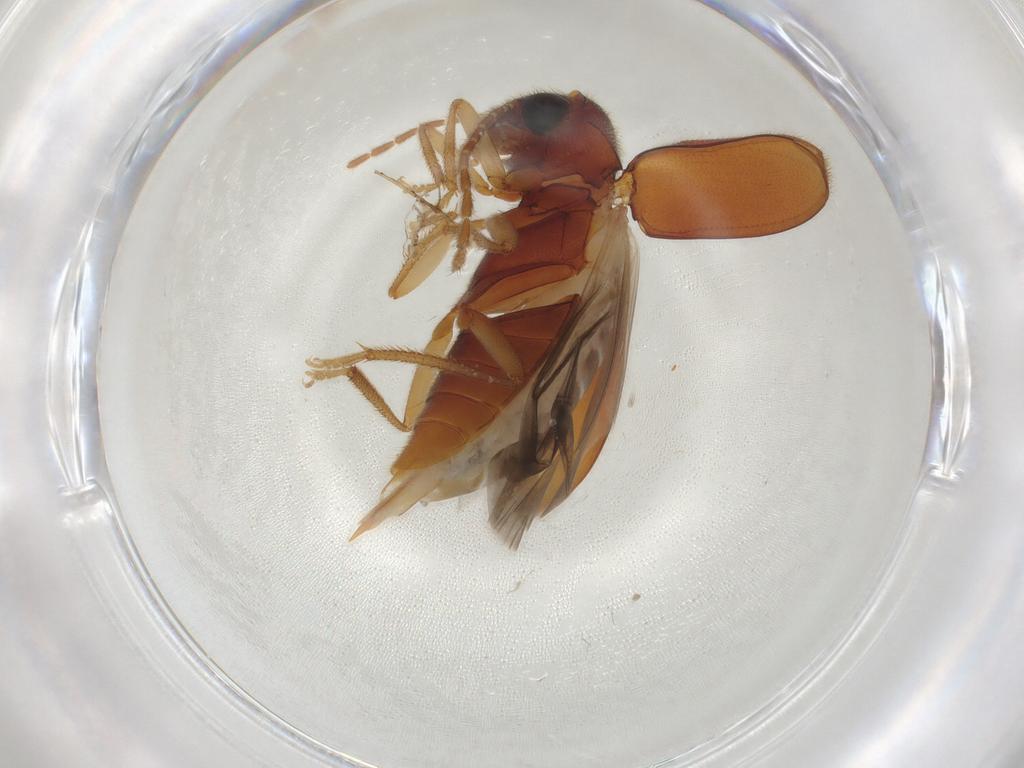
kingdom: Animalia
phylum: Arthropoda
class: Insecta
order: Coleoptera
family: Ptilodactylidae
